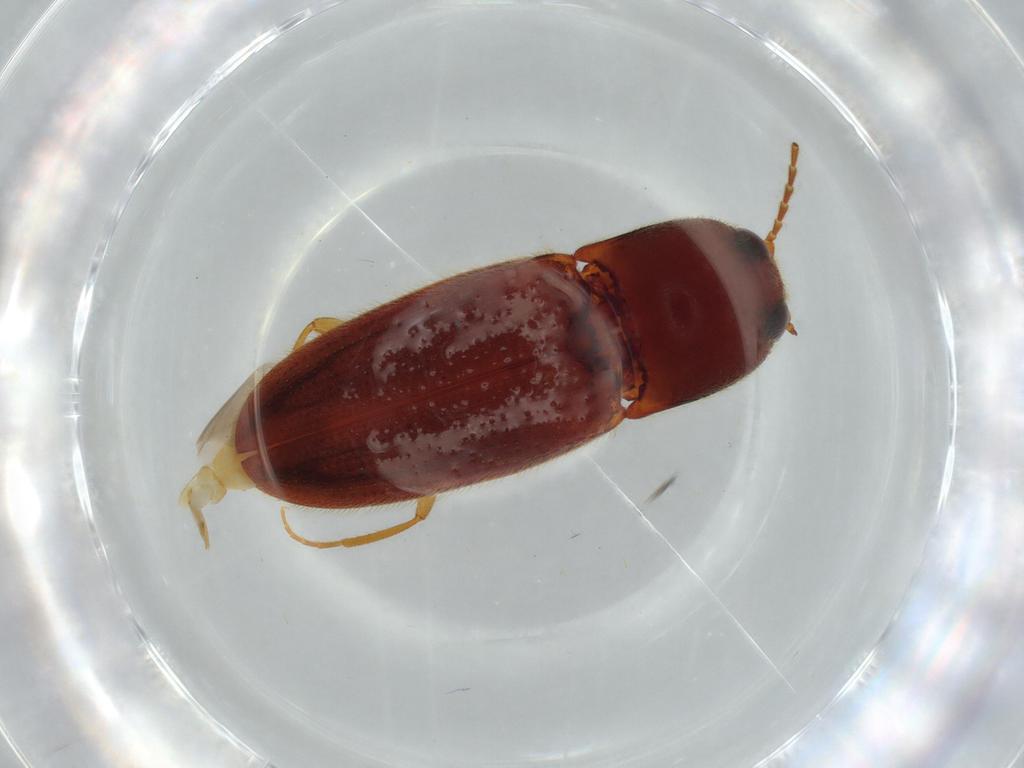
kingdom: Animalia
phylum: Arthropoda
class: Insecta
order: Coleoptera
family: Elateridae
